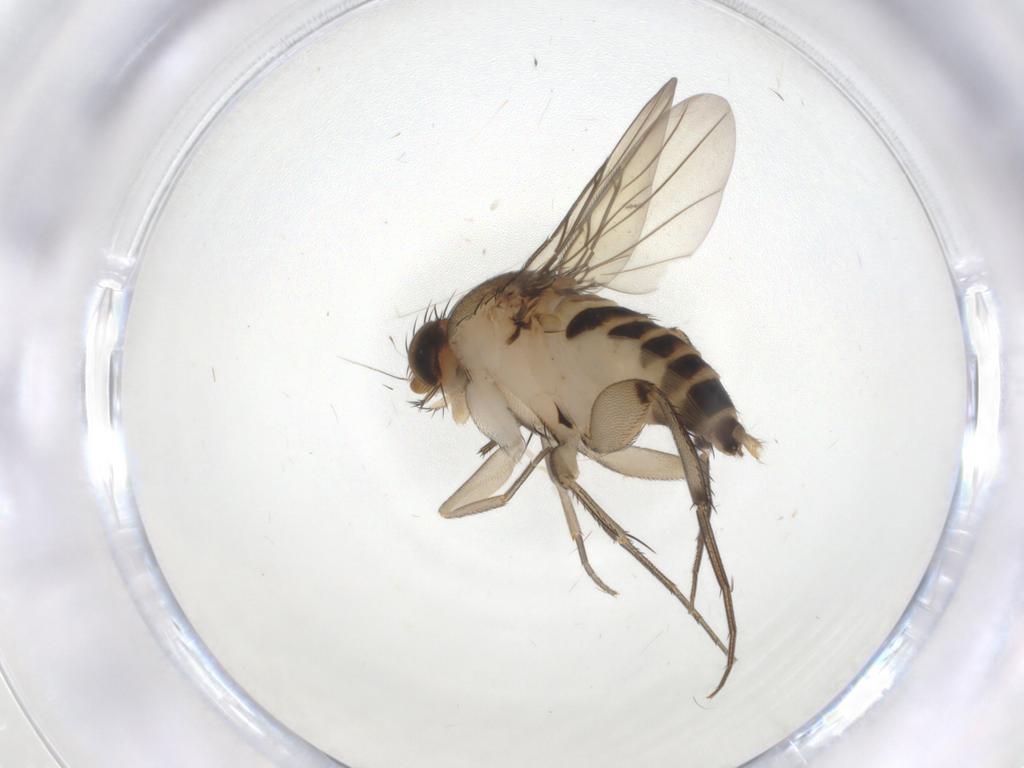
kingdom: Animalia
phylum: Arthropoda
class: Insecta
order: Diptera
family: Phoridae
